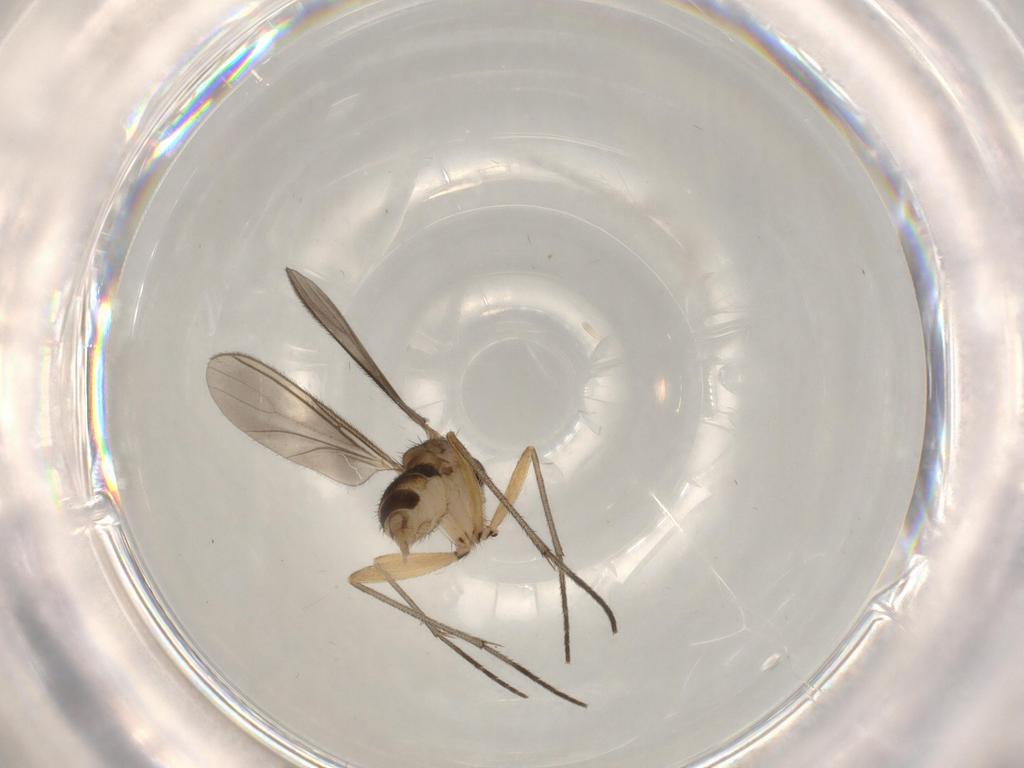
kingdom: Animalia
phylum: Arthropoda
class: Insecta
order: Diptera
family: Sciaridae
